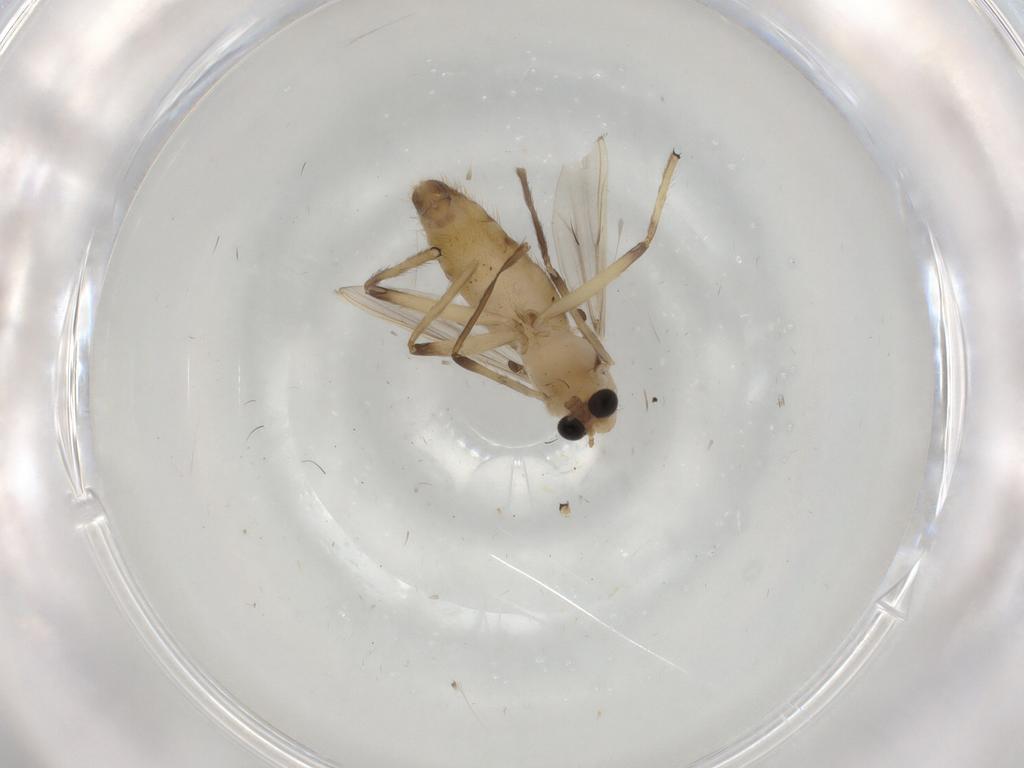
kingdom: Animalia
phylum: Arthropoda
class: Insecta
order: Diptera
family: Chironomidae
